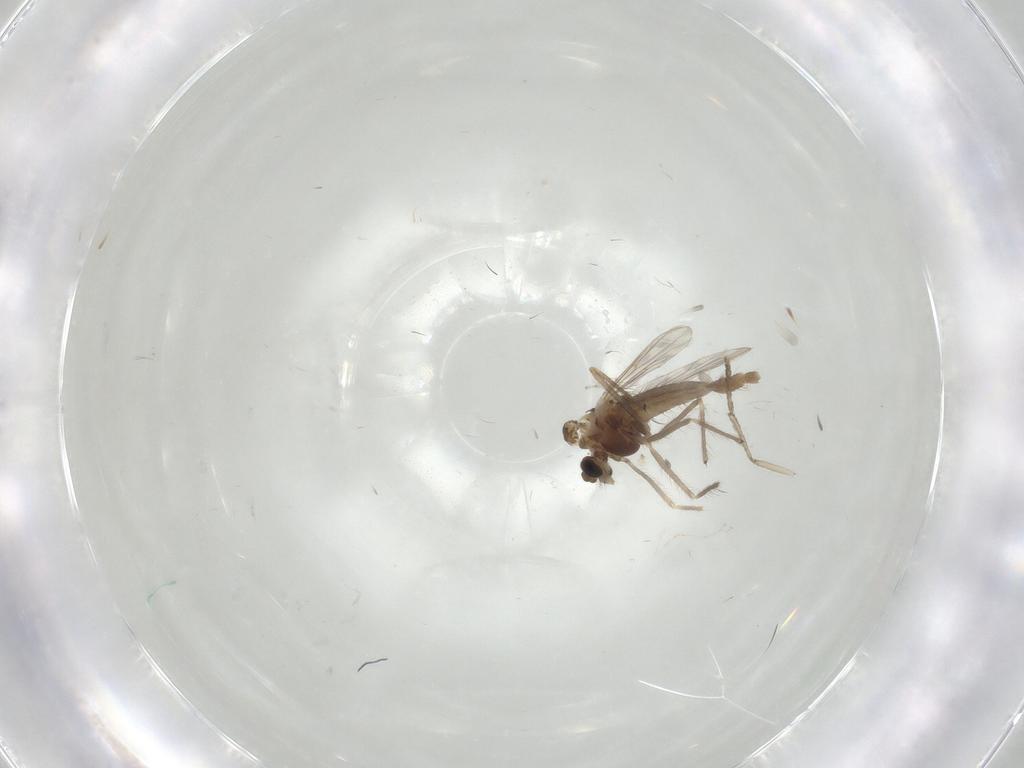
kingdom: Animalia
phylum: Arthropoda
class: Insecta
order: Diptera
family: Chironomidae
